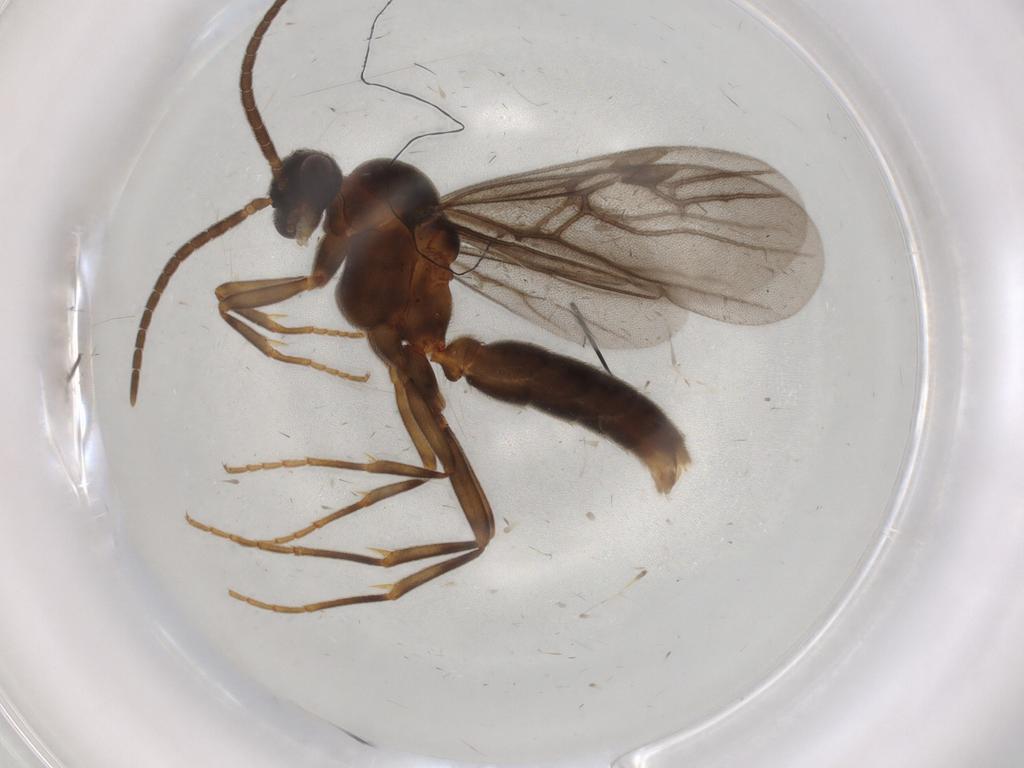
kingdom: Animalia
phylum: Arthropoda
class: Insecta
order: Hymenoptera
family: Formicidae
